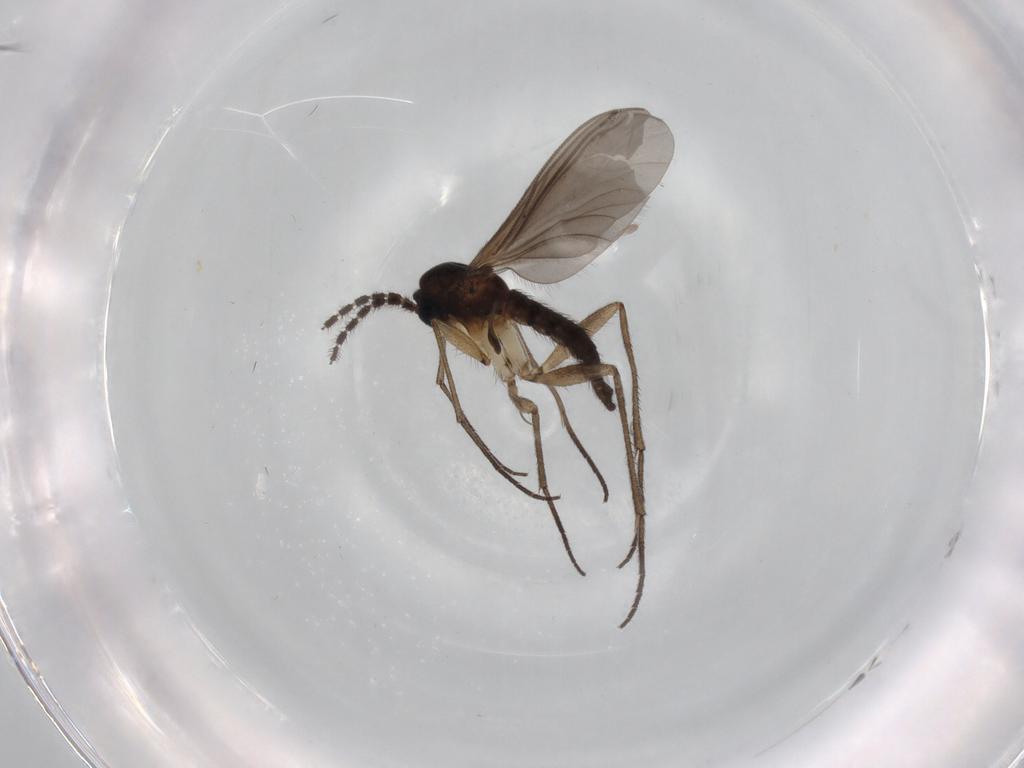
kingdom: Animalia
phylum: Arthropoda
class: Insecta
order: Diptera
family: Sciaridae
